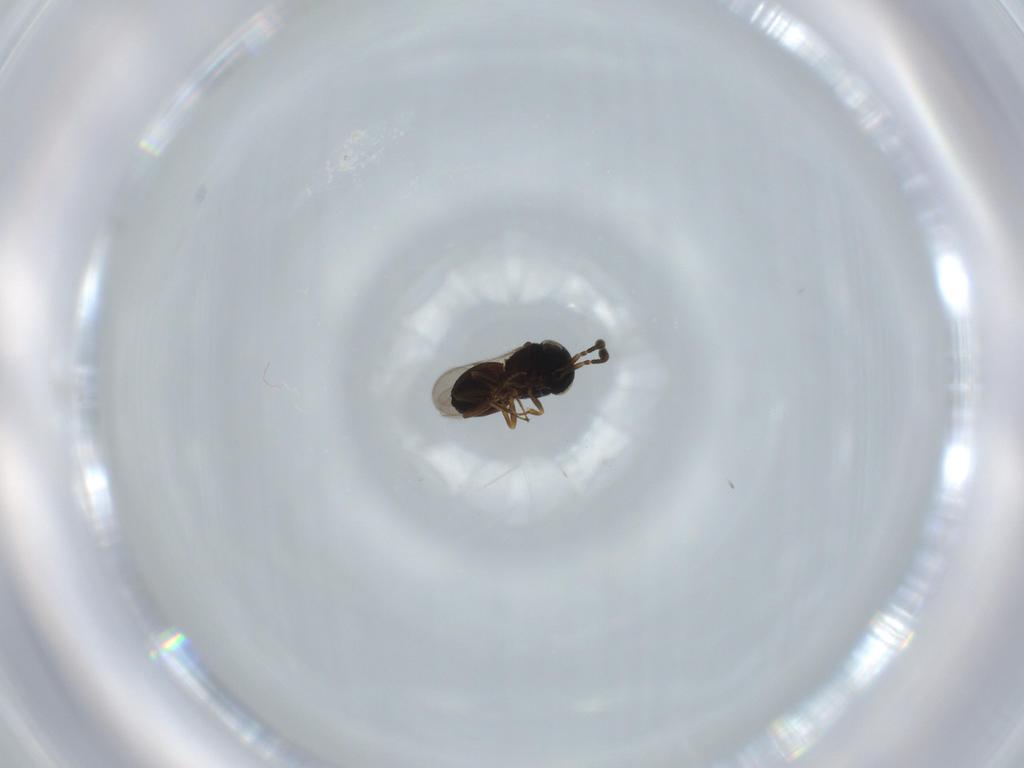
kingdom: Animalia
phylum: Arthropoda
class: Insecta
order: Coleoptera
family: Curculionidae
